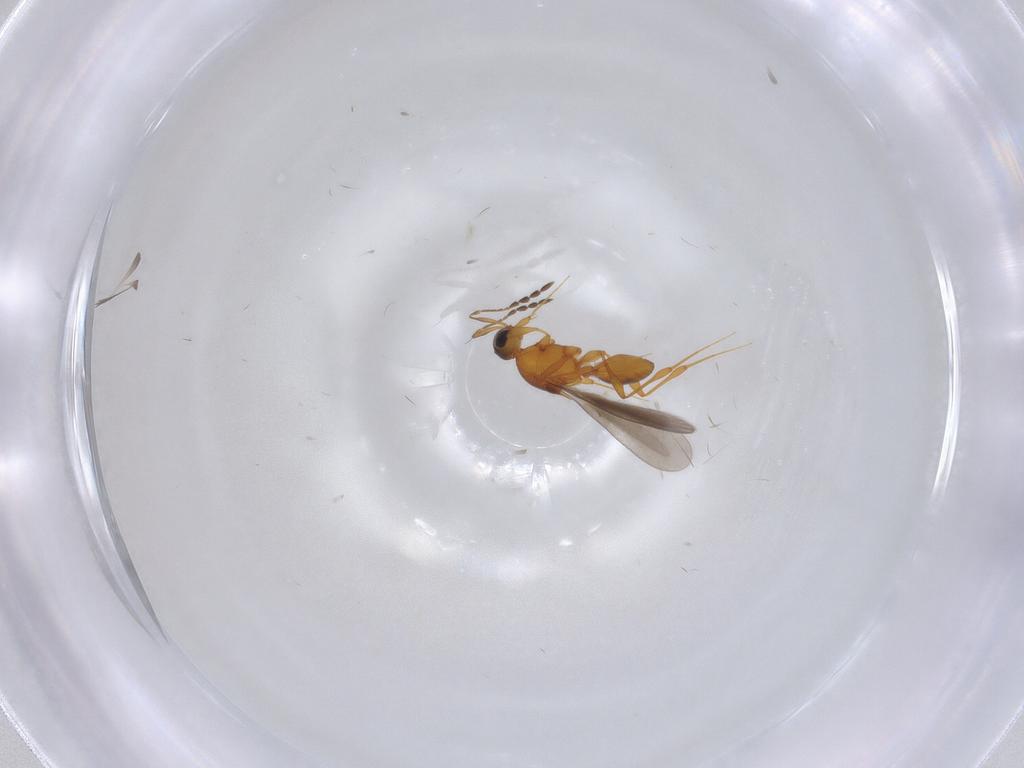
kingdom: Animalia
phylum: Arthropoda
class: Insecta
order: Hymenoptera
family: Platygastridae
